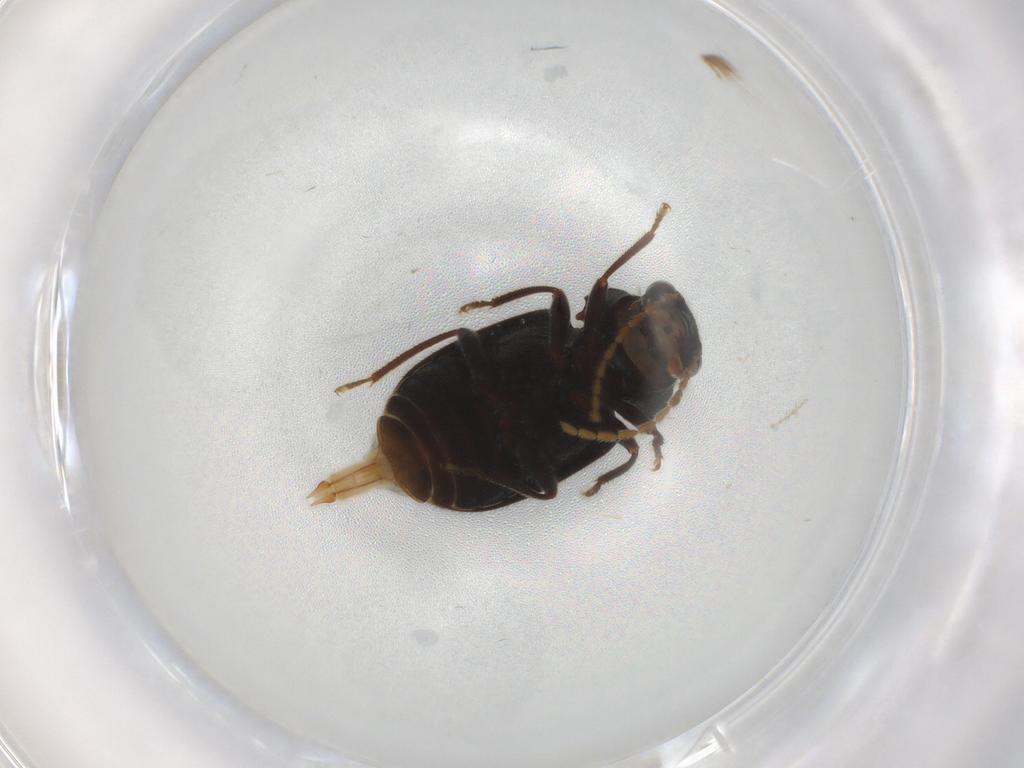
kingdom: Animalia
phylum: Arthropoda
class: Insecta
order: Coleoptera
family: Ptilodactylidae
